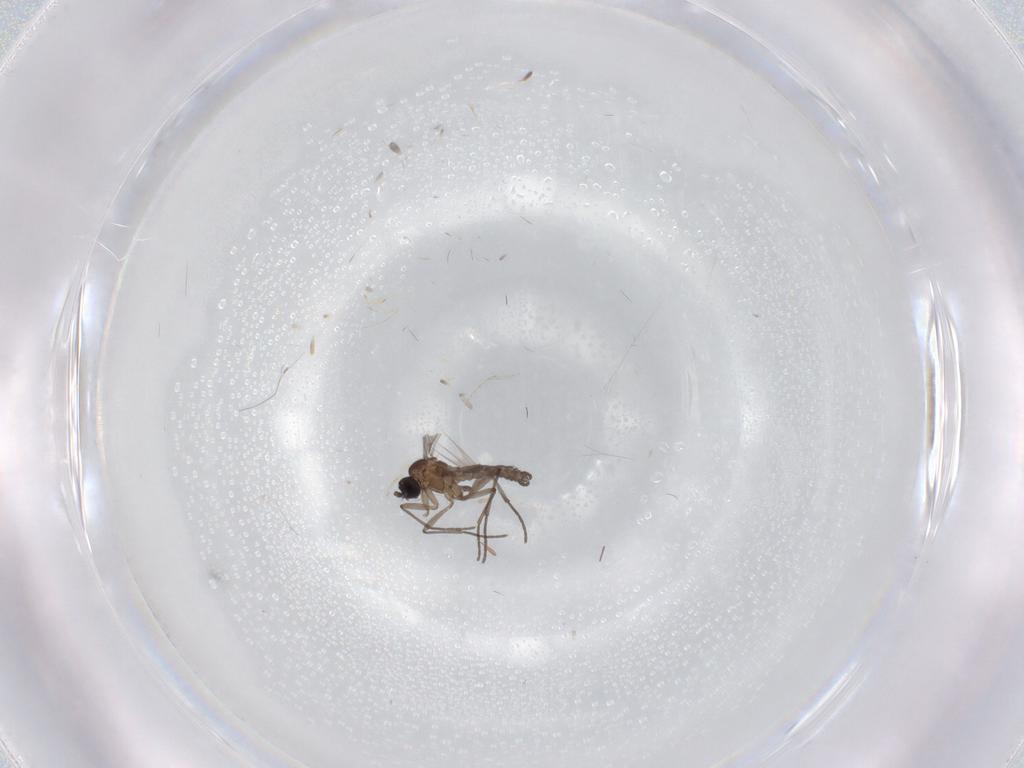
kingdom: Animalia
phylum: Arthropoda
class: Insecta
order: Diptera
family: Cecidomyiidae
